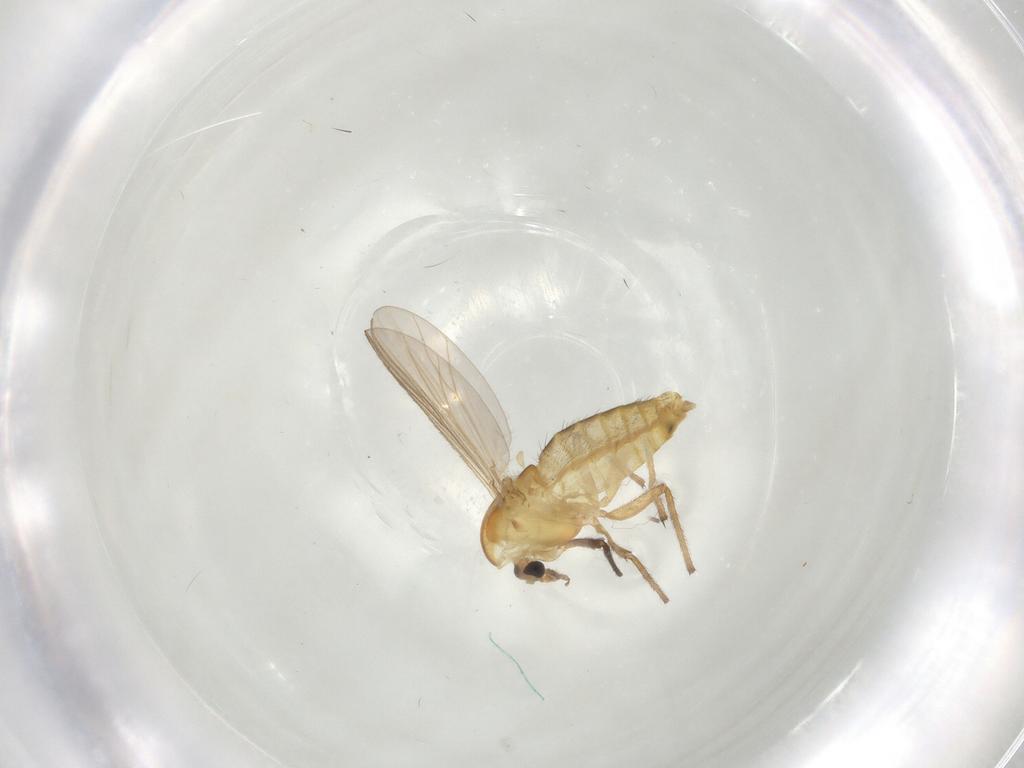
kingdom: Animalia
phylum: Arthropoda
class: Insecta
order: Diptera
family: Chironomidae
